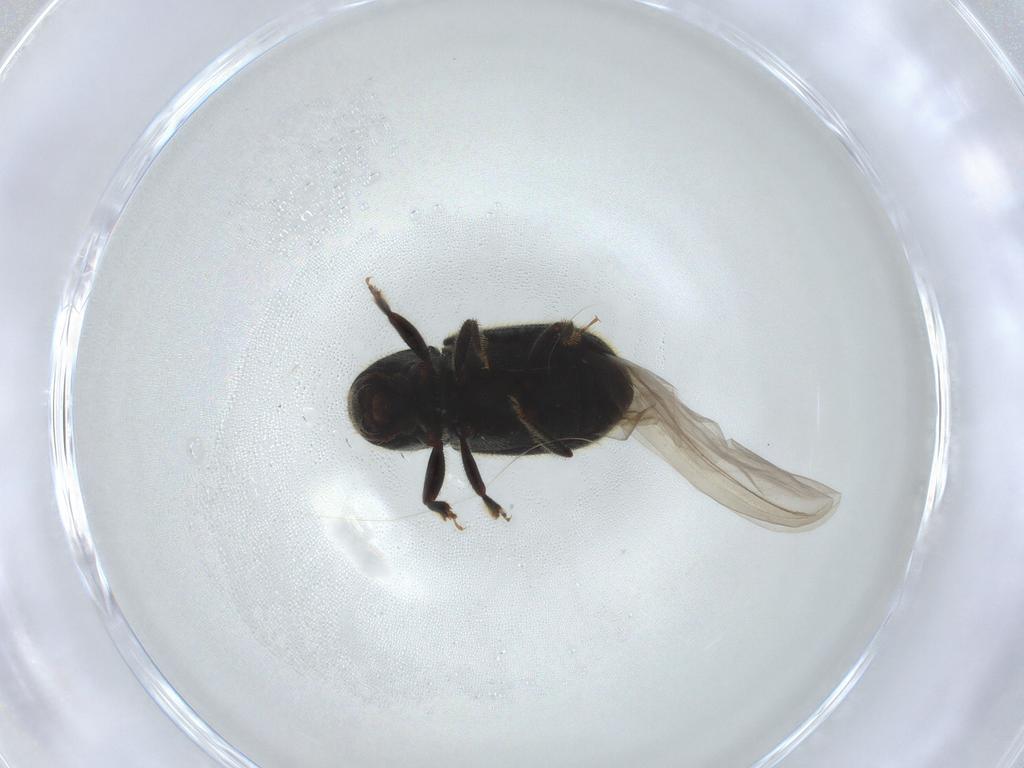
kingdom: Animalia
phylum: Arthropoda
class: Insecta
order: Coleoptera
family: Curculionidae
